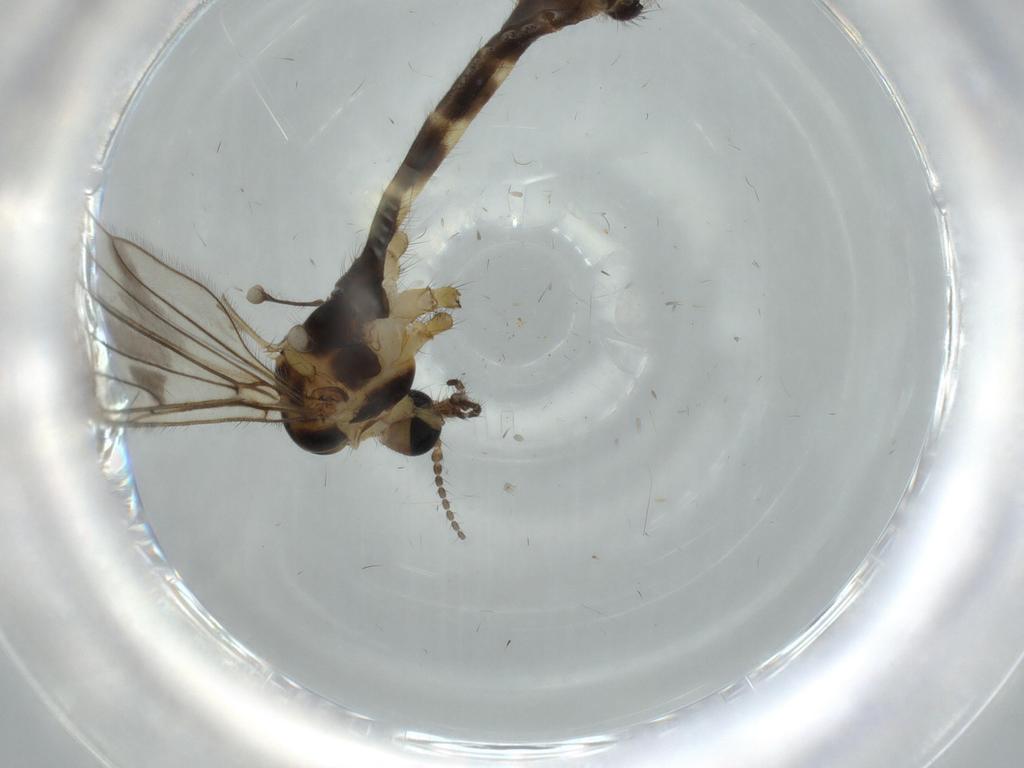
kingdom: Animalia
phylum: Arthropoda
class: Insecta
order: Diptera
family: Limoniidae
